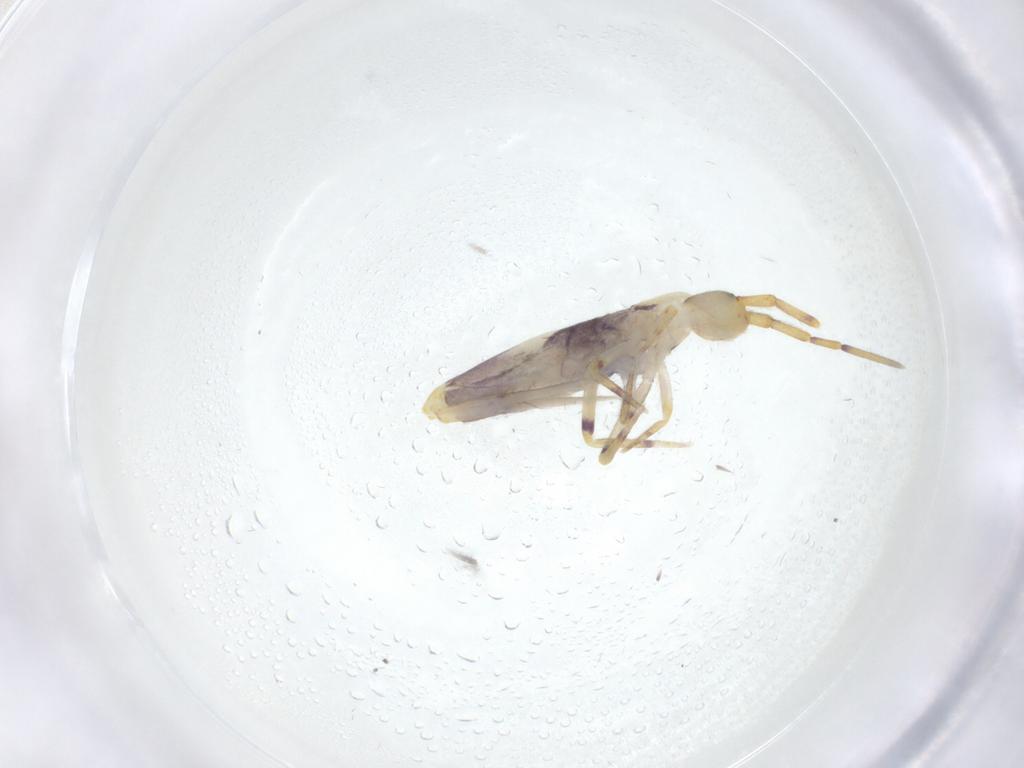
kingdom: Animalia
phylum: Arthropoda
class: Collembola
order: Entomobryomorpha
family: Entomobryidae
